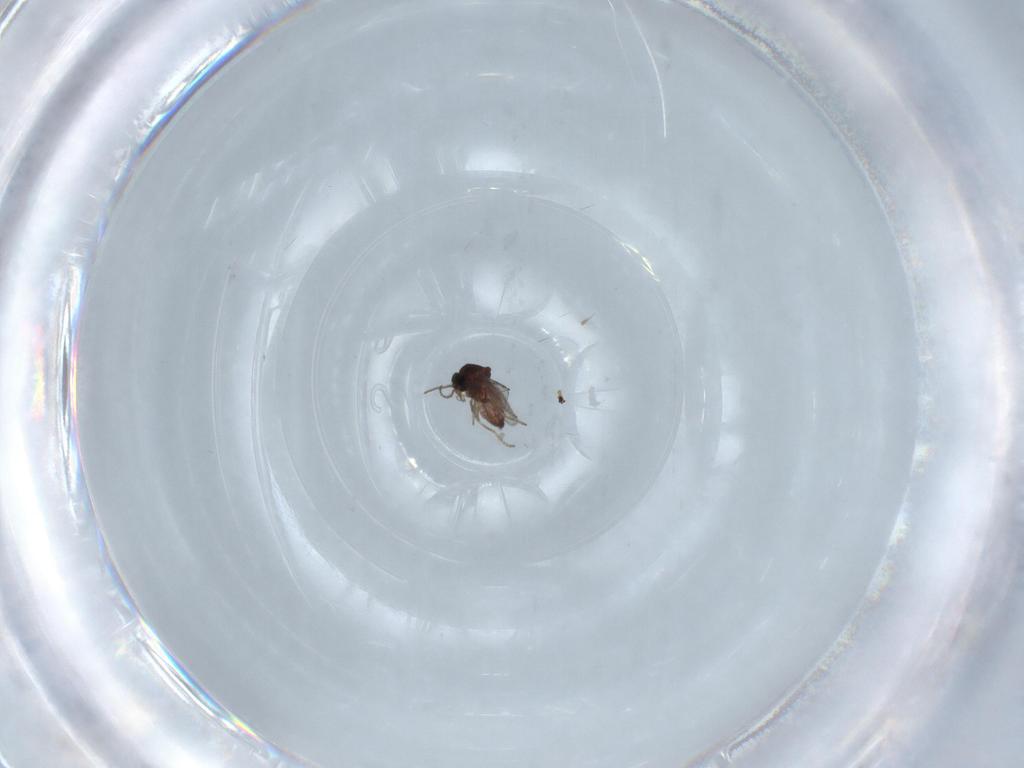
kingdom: Animalia
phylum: Arthropoda
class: Insecta
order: Diptera
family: Ceratopogonidae
